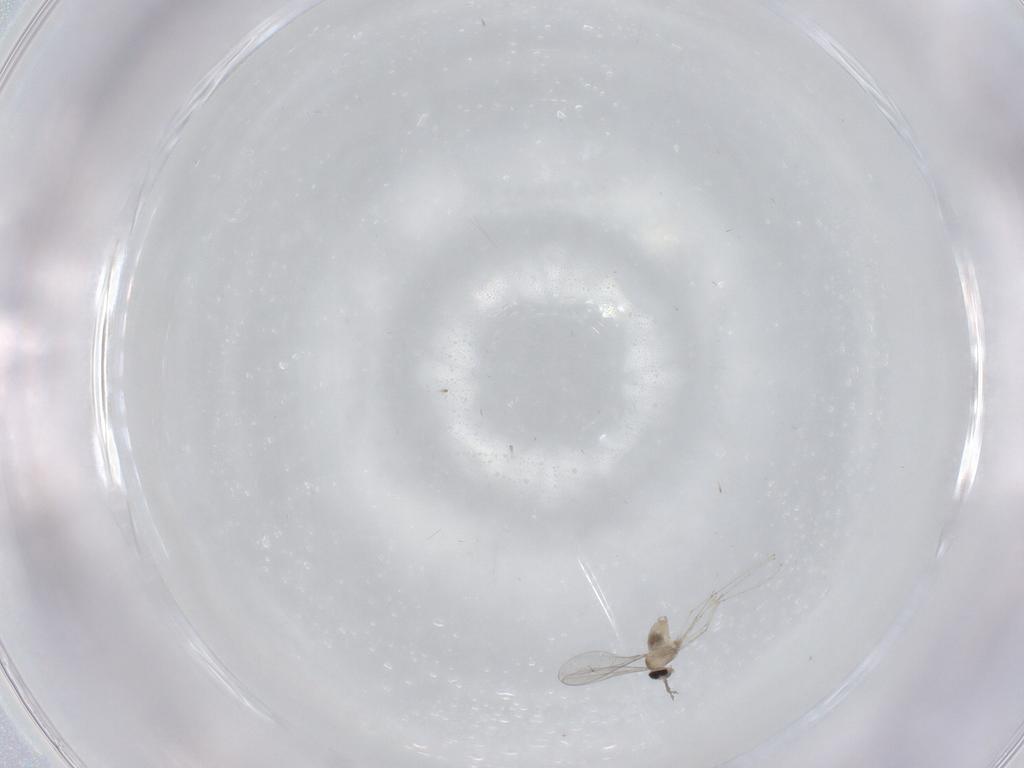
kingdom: Animalia
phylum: Arthropoda
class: Insecta
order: Diptera
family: Cecidomyiidae
